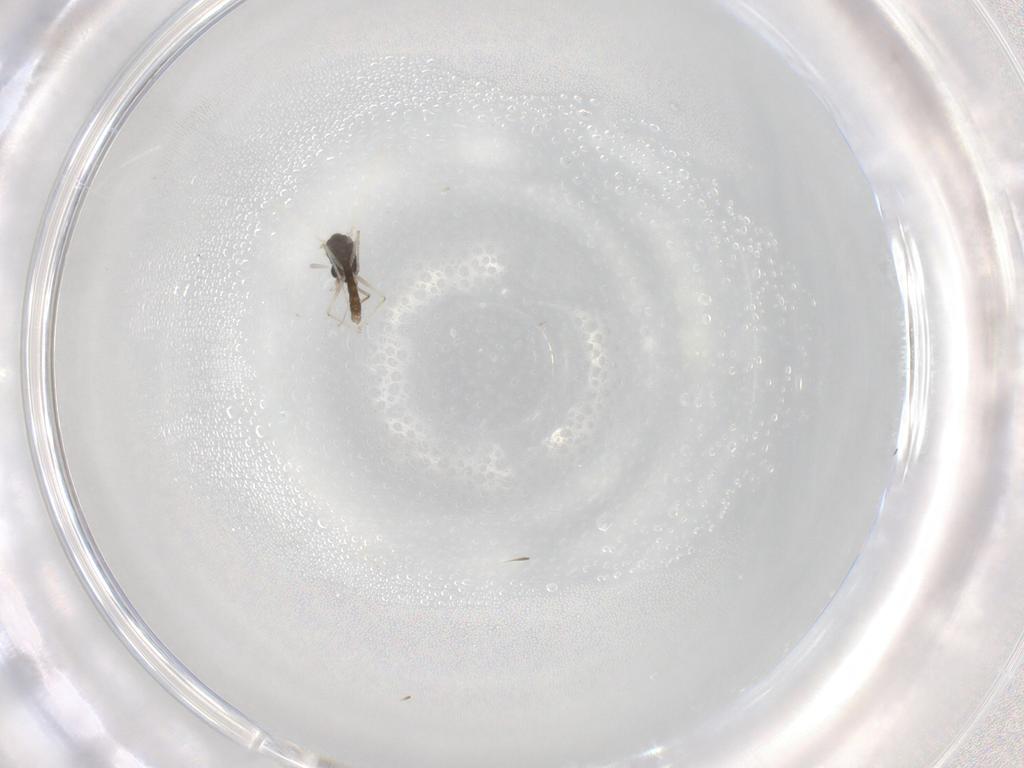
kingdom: Animalia
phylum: Arthropoda
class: Insecta
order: Diptera
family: Chironomidae
